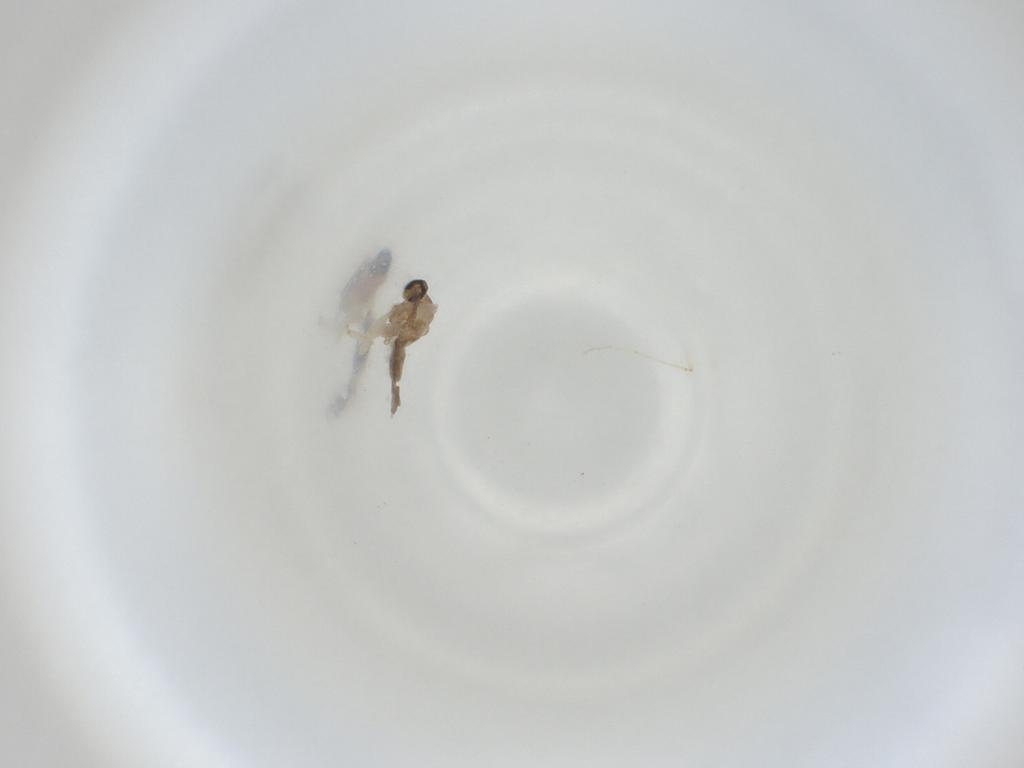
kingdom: Animalia
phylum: Arthropoda
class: Insecta
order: Diptera
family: Cecidomyiidae
